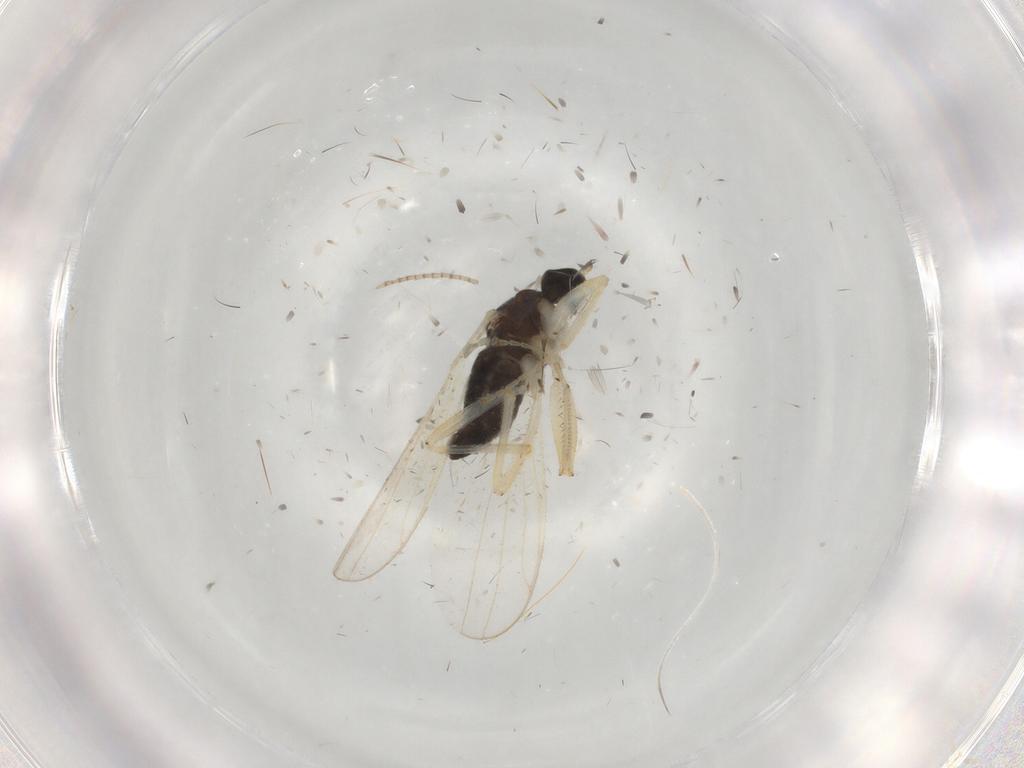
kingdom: Animalia
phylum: Arthropoda
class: Insecta
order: Diptera
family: Hybotidae
